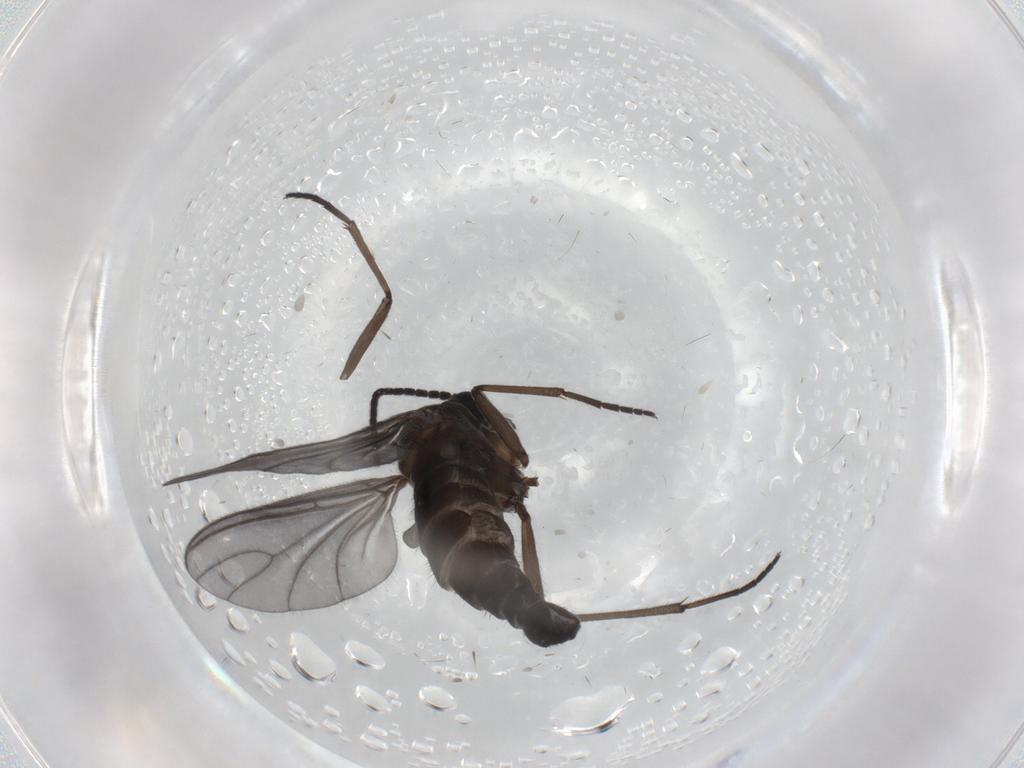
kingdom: Animalia
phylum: Arthropoda
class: Insecta
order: Diptera
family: Sciaridae
